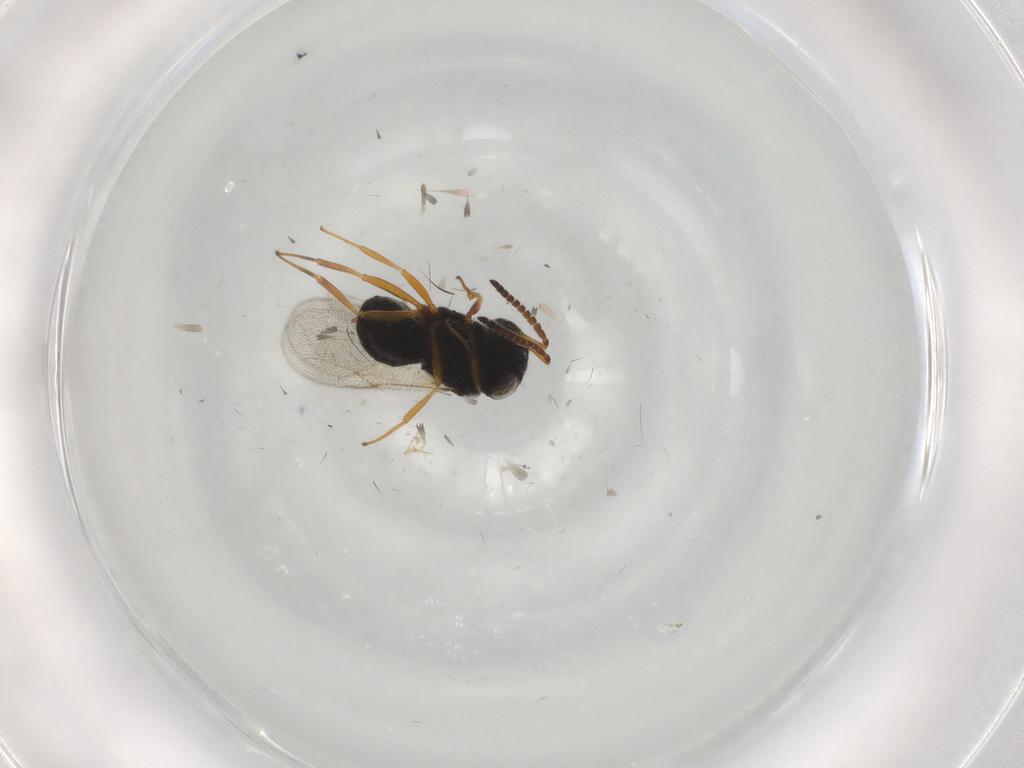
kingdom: Animalia
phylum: Arthropoda
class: Insecta
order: Hymenoptera
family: Scelionidae
